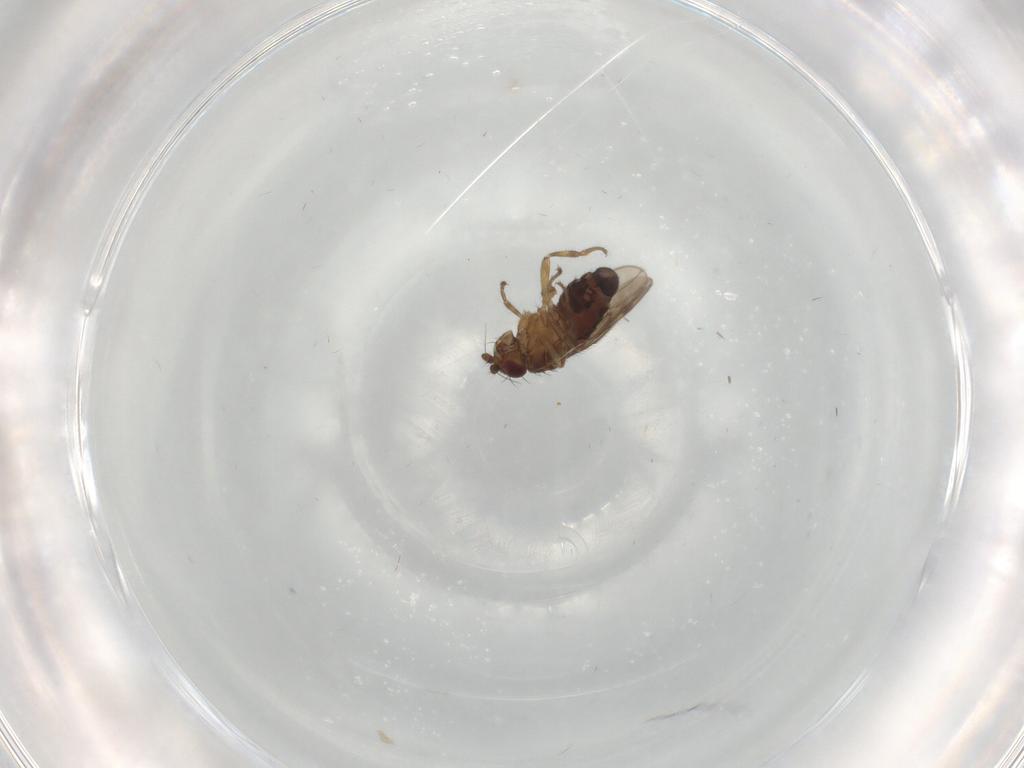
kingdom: Animalia
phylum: Arthropoda
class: Insecta
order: Diptera
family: Sphaeroceridae
